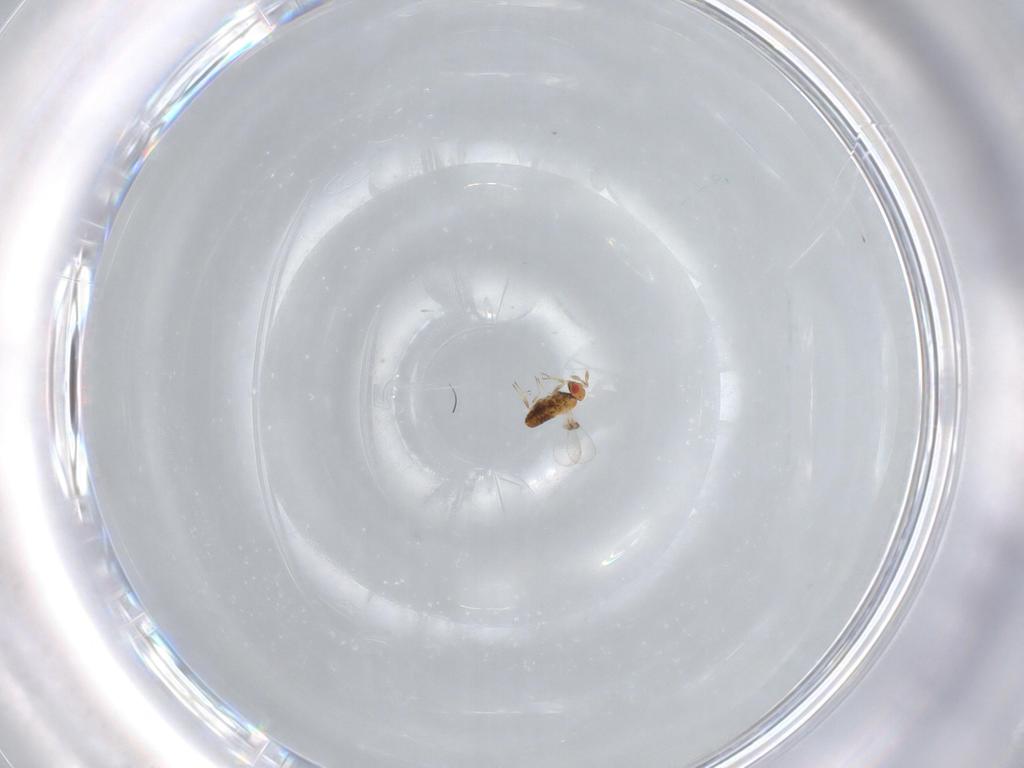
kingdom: Animalia
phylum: Arthropoda
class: Insecta
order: Hymenoptera
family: Trichogrammatidae
